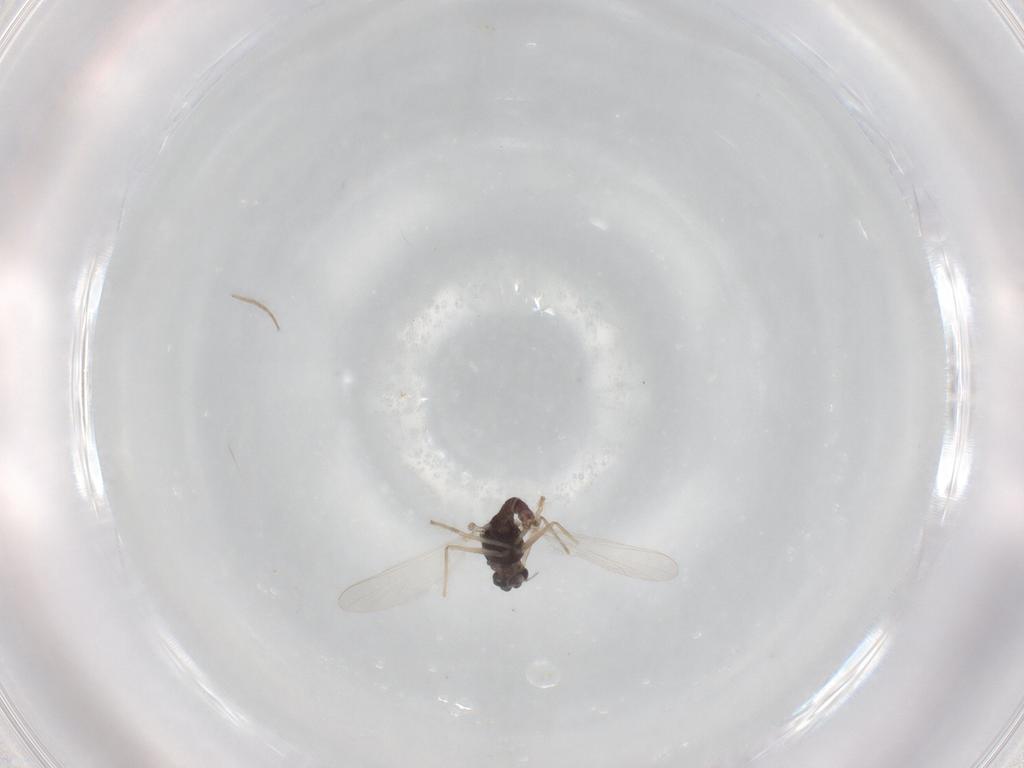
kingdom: Animalia
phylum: Arthropoda
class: Insecta
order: Diptera
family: Chironomidae
